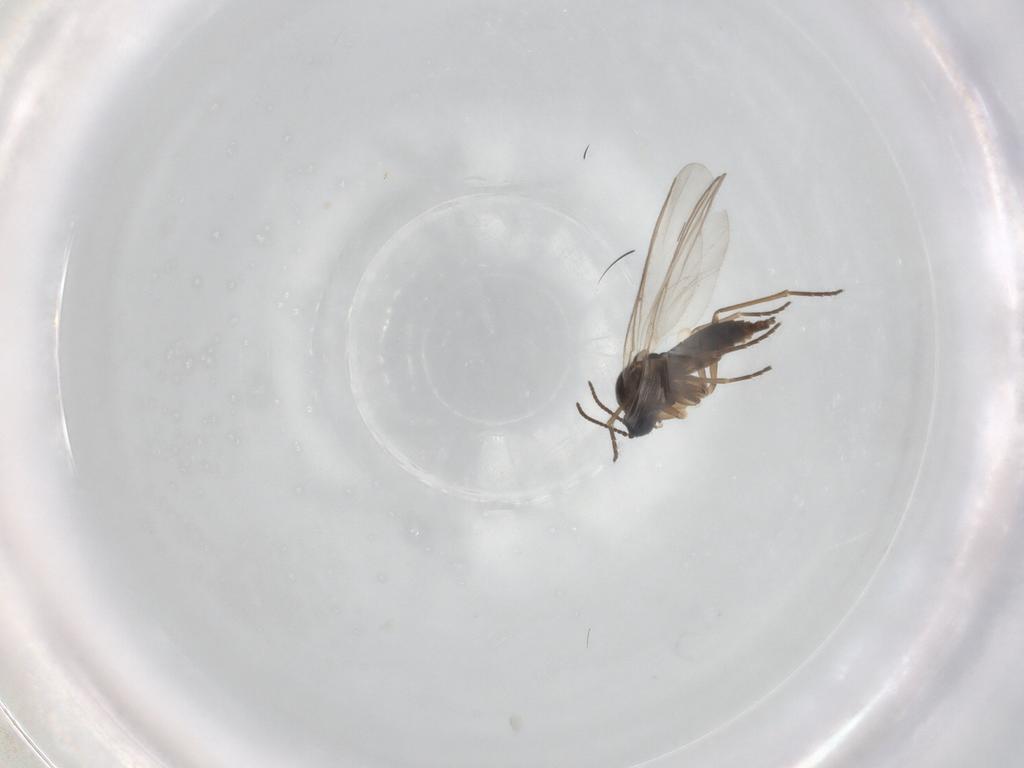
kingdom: Animalia
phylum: Arthropoda
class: Insecta
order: Diptera
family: Sciaridae
